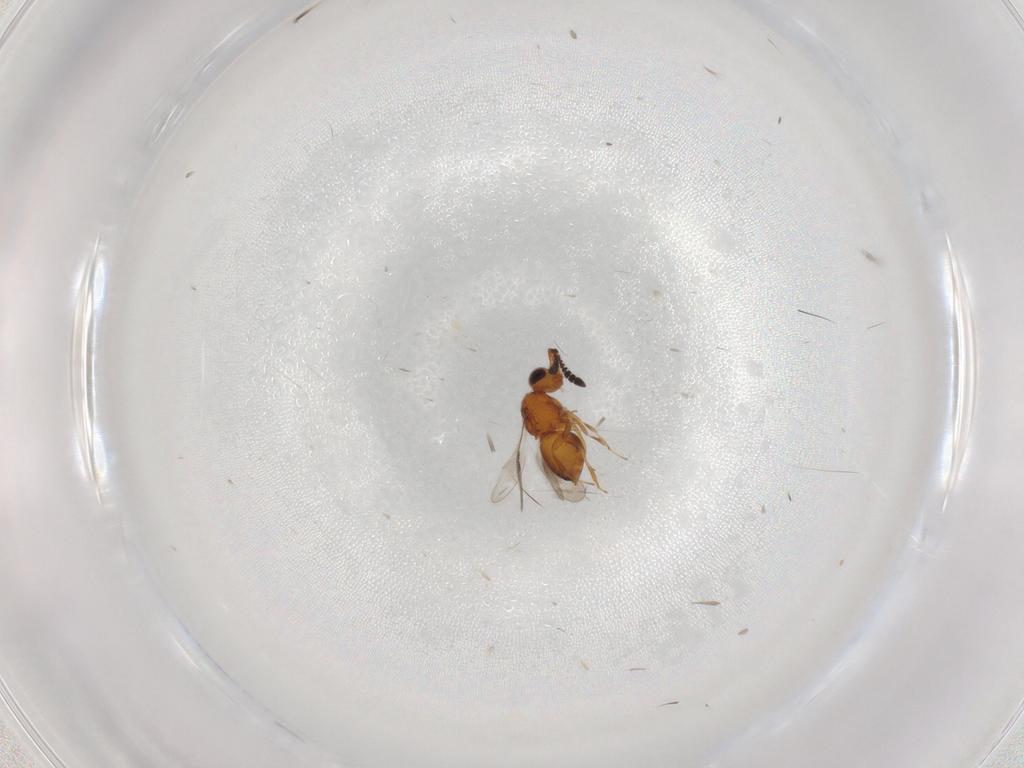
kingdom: Animalia
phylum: Arthropoda
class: Insecta
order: Hymenoptera
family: Ceraphronidae
